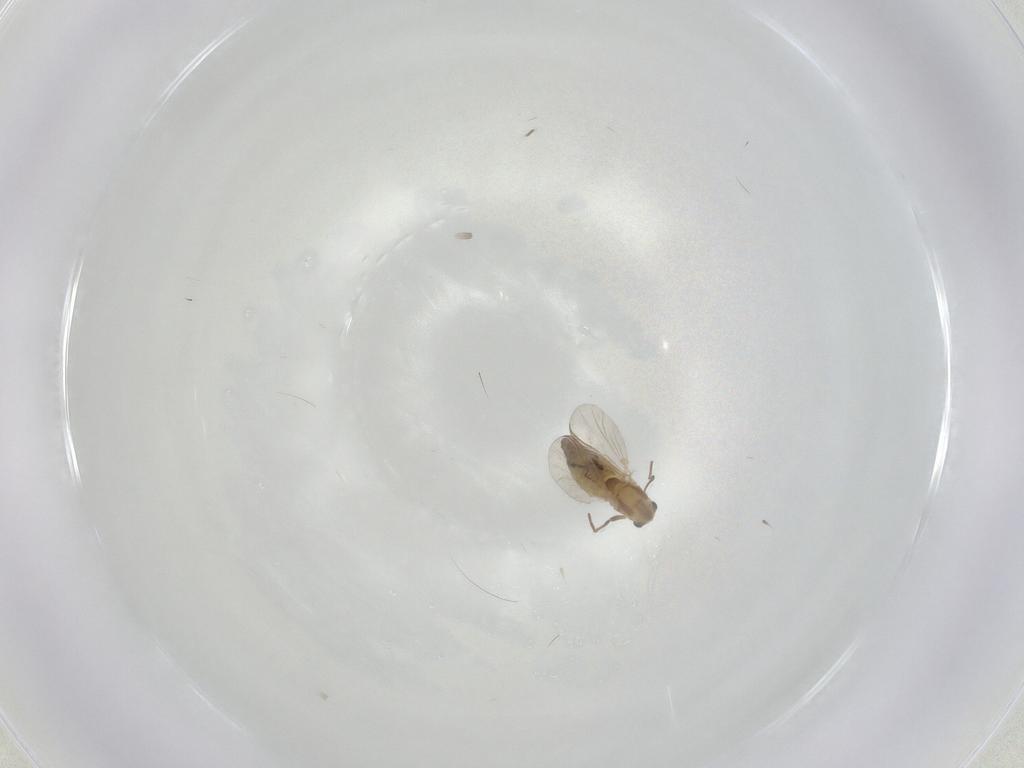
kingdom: Animalia
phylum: Arthropoda
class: Insecta
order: Diptera
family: Chironomidae
